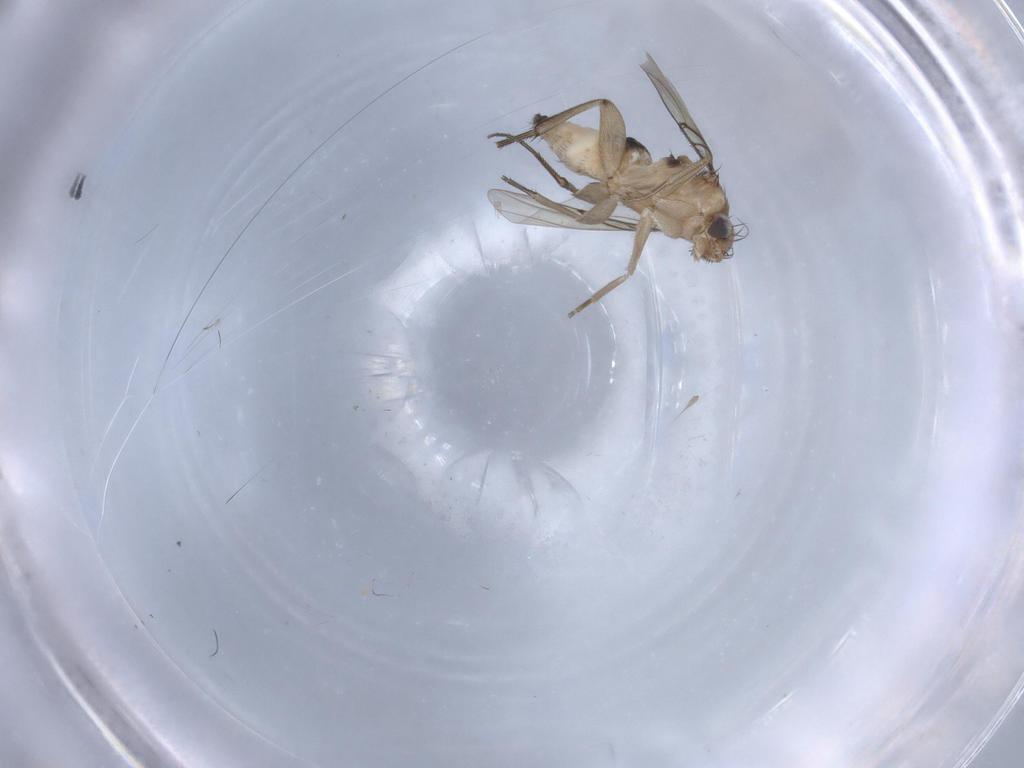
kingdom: Animalia
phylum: Arthropoda
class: Insecta
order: Diptera
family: Phoridae
